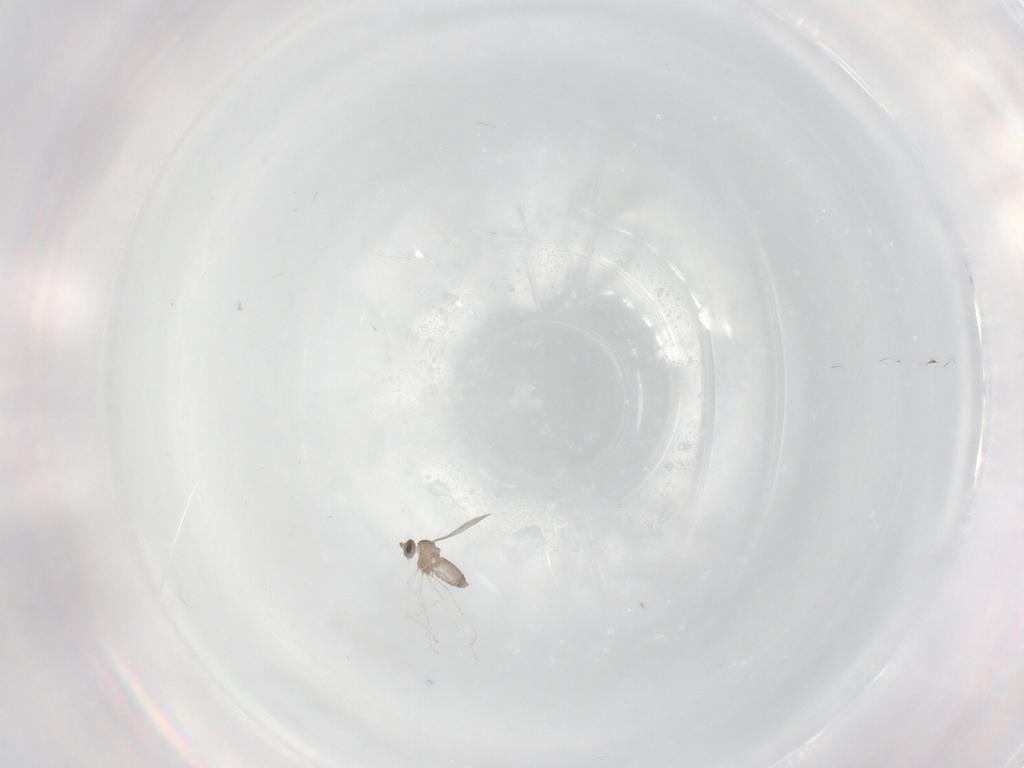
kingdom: Animalia
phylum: Arthropoda
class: Insecta
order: Diptera
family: Cecidomyiidae
